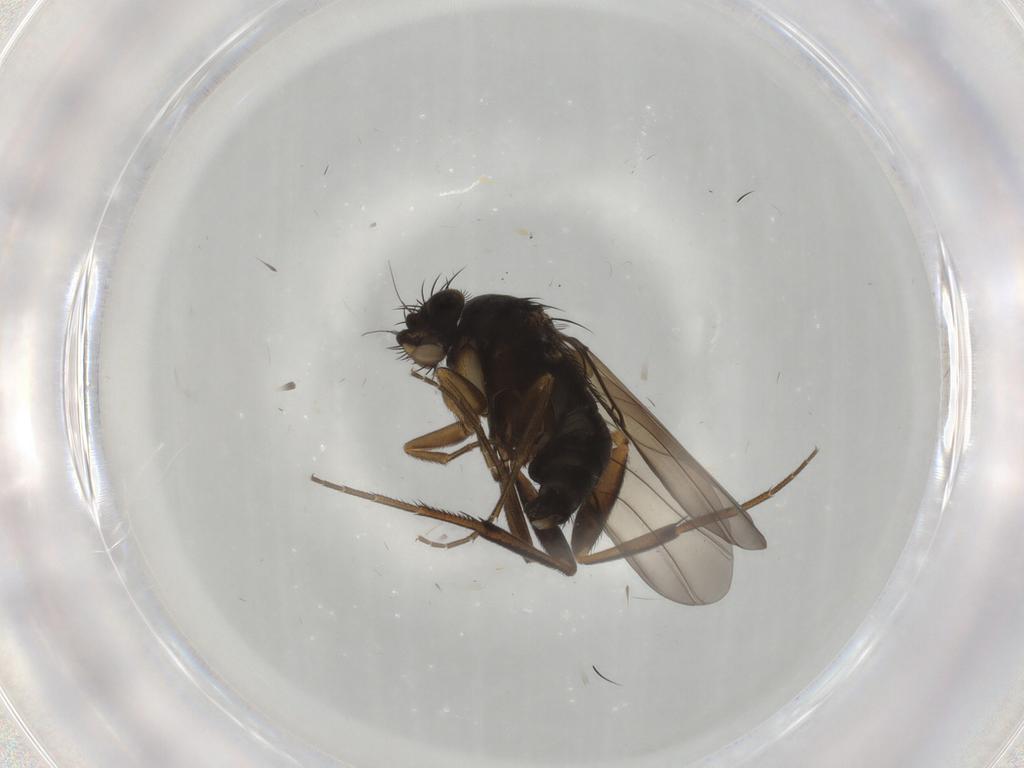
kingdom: Animalia
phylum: Arthropoda
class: Insecta
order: Diptera
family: Phoridae
